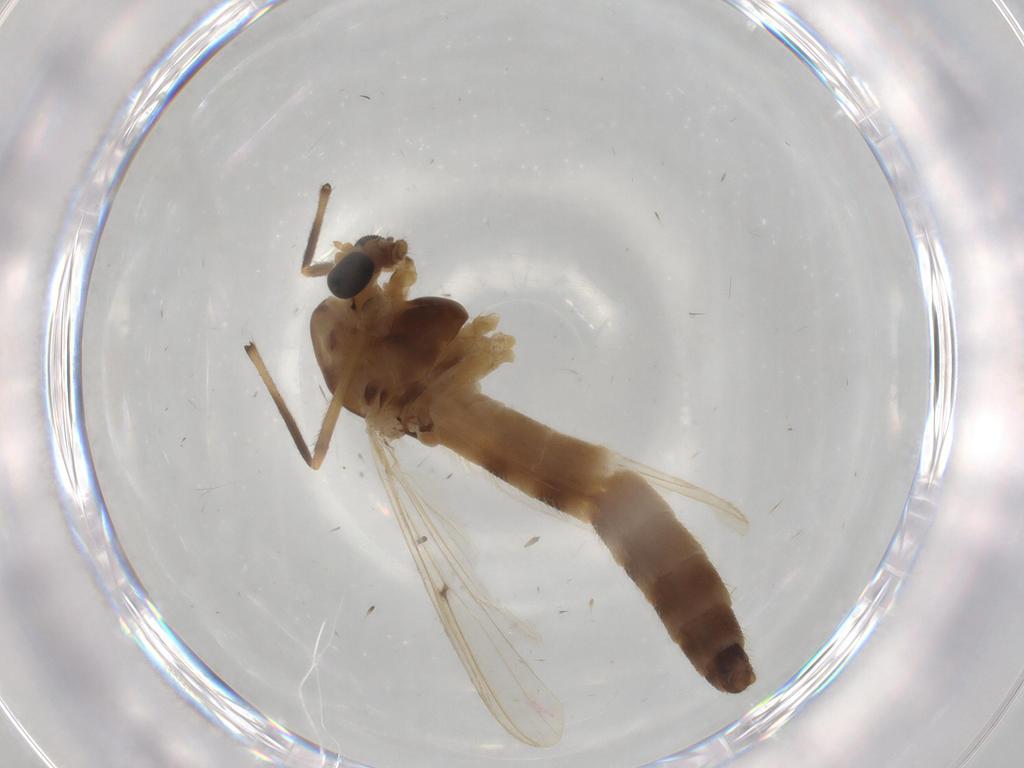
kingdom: Animalia
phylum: Arthropoda
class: Insecta
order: Diptera
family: Chironomidae
